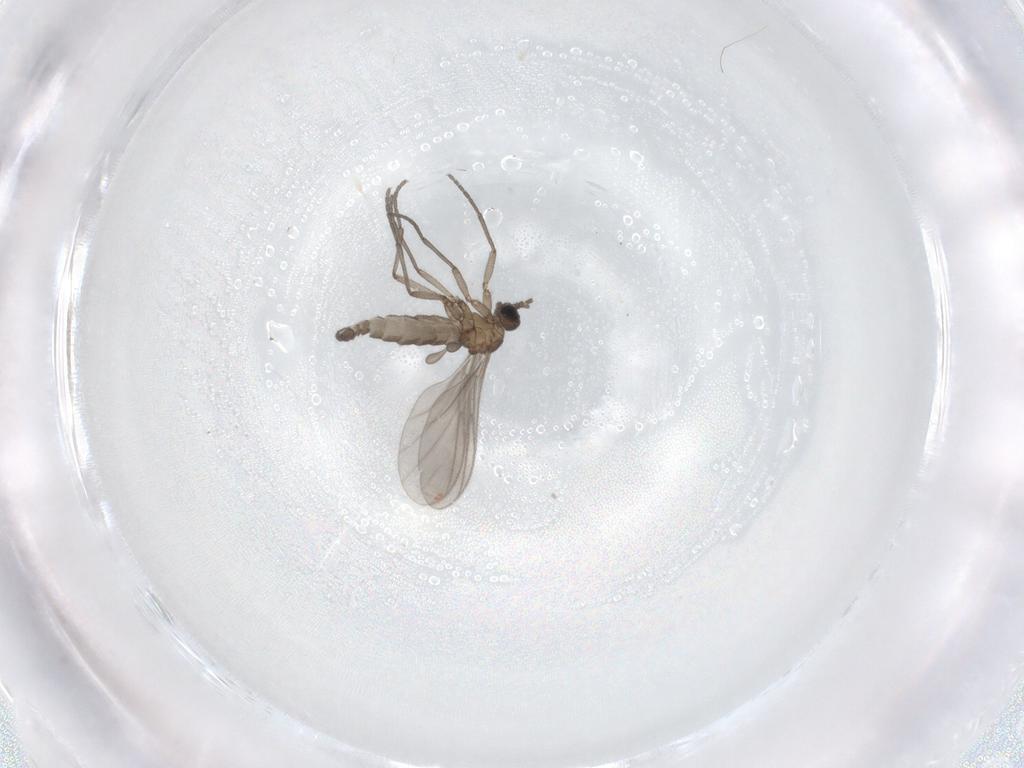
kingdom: Animalia
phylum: Arthropoda
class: Insecta
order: Diptera
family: Sciaridae
